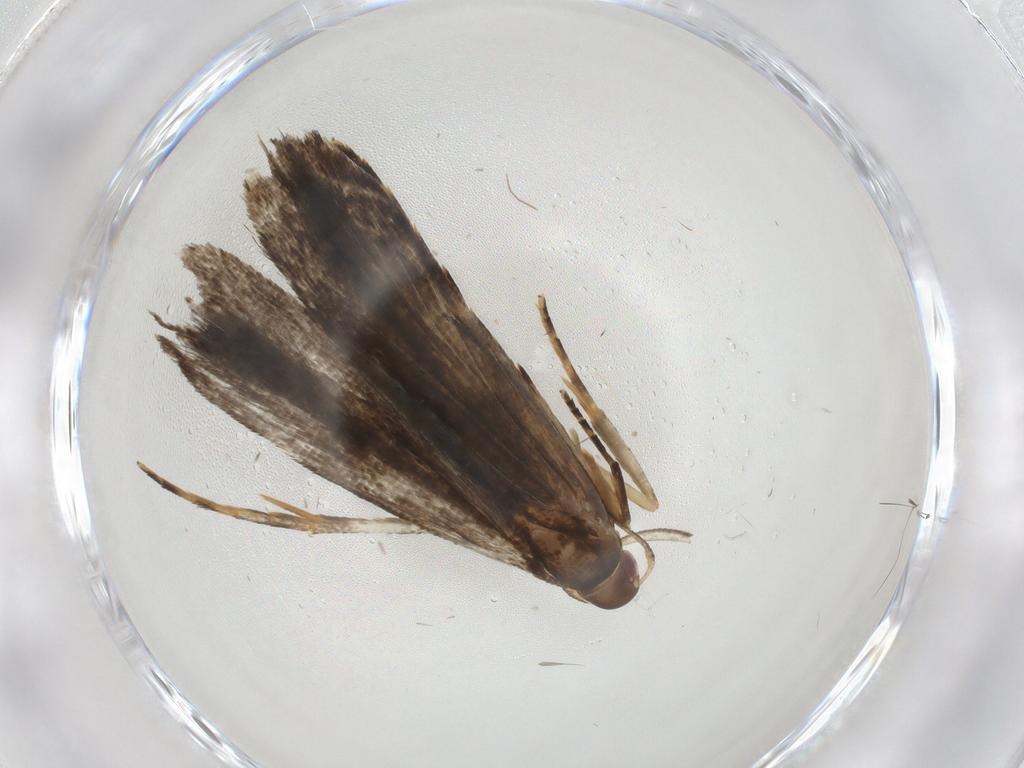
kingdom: Animalia
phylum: Arthropoda
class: Insecta
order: Lepidoptera
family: Gelechiidae
